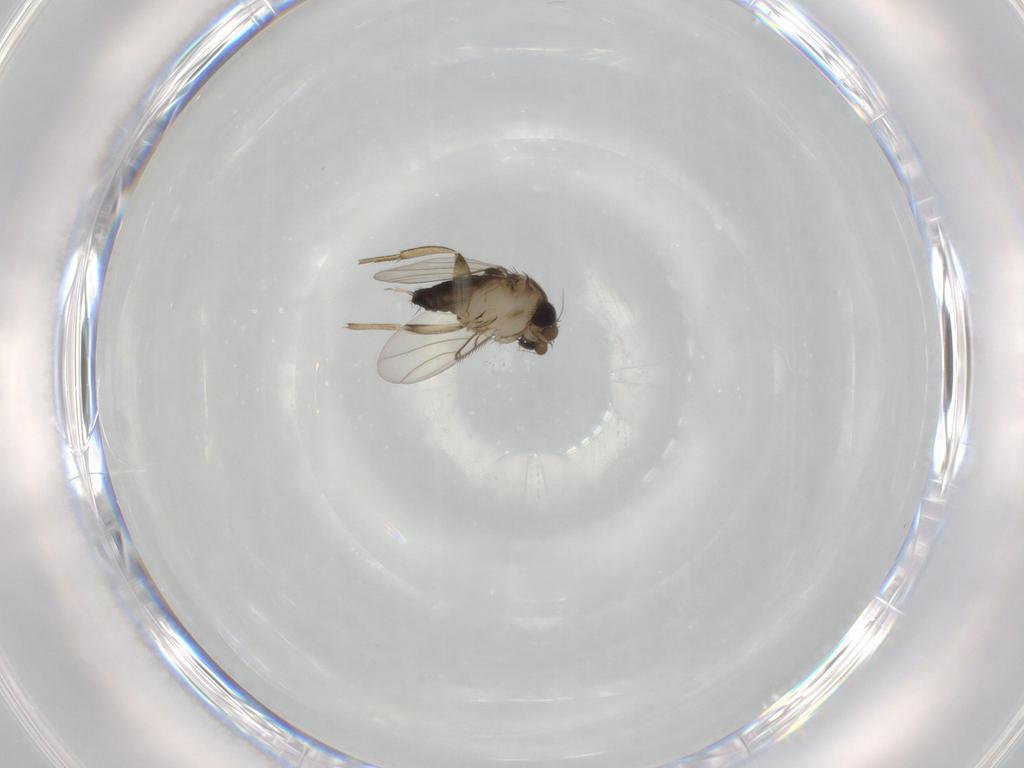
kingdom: Animalia
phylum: Arthropoda
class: Insecta
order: Diptera
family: Phoridae
